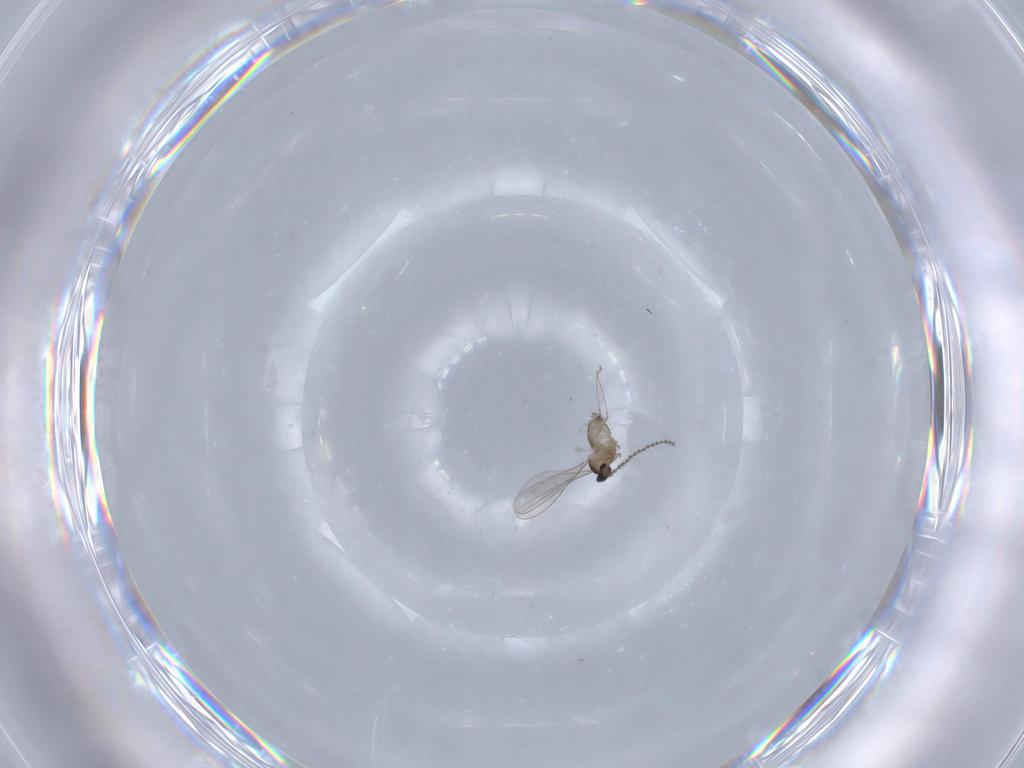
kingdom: Animalia
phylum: Arthropoda
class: Insecta
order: Diptera
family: Cecidomyiidae
